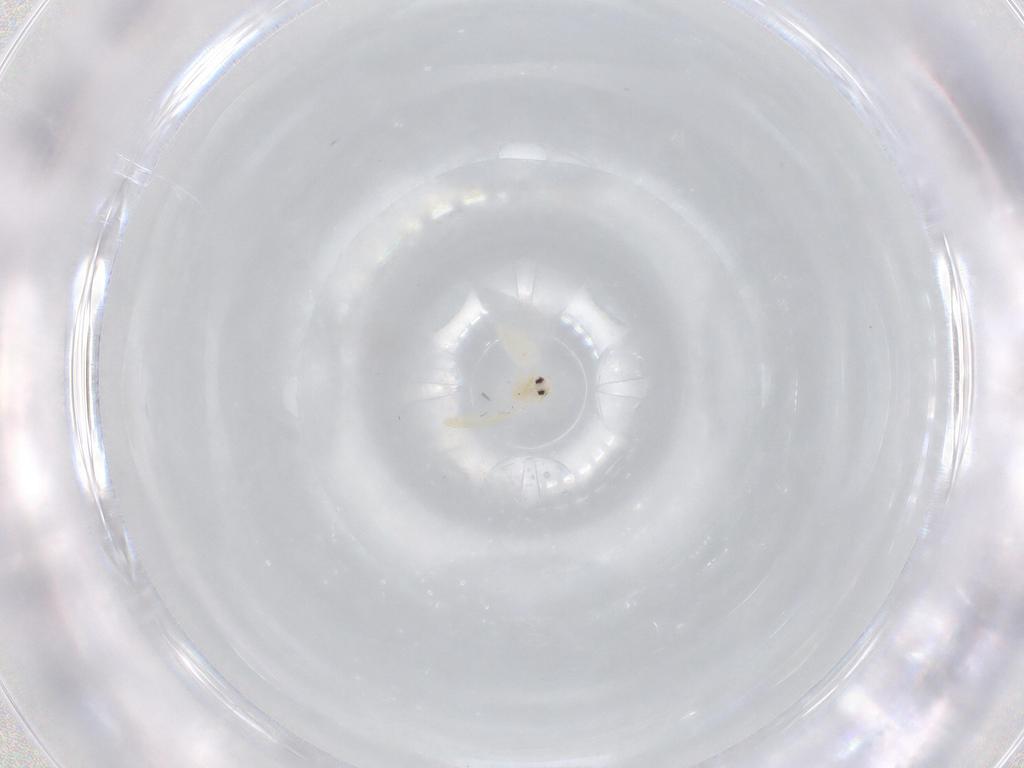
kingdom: Animalia
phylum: Arthropoda
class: Insecta
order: Hemiptera
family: Aleyrodidae
